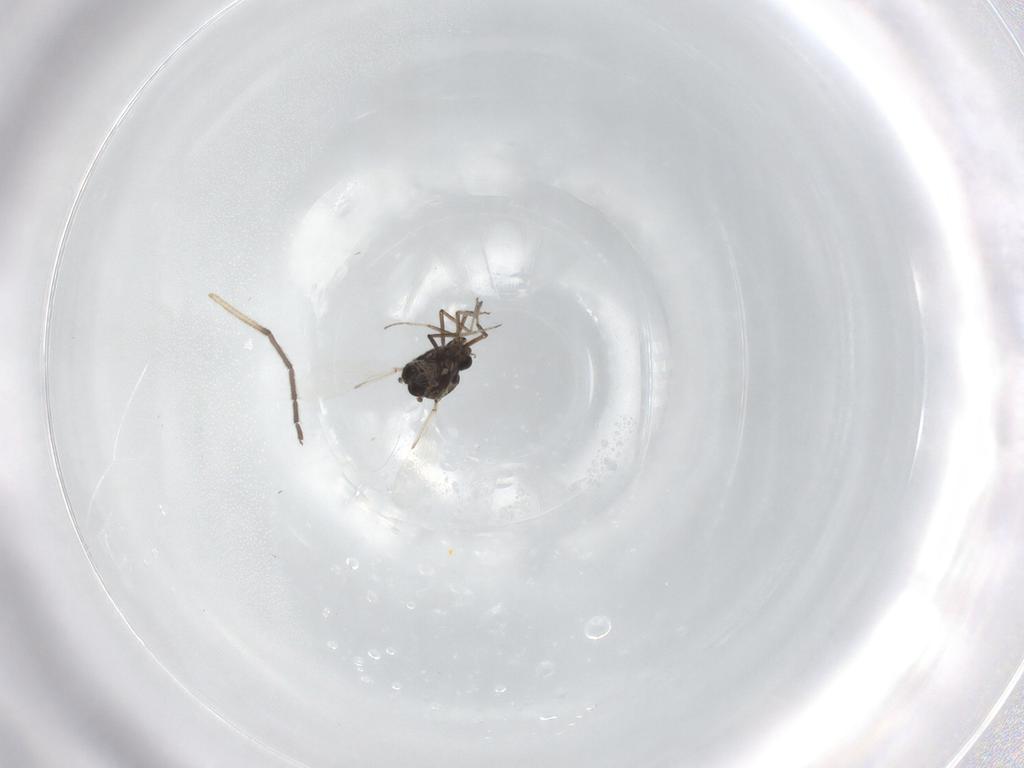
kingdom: Animalia
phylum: Arthropoda
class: Insecta
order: Diptera
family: Ceratopogonidae
